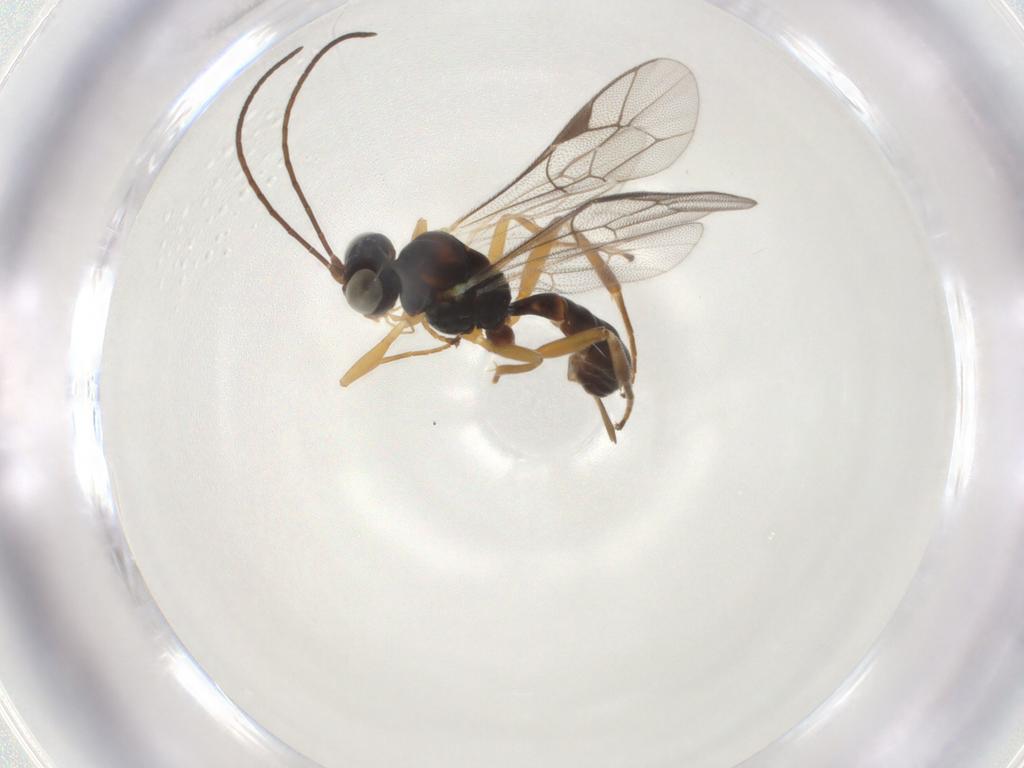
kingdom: Animalia
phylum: Arthropoda
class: Insecta
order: Hymenoptera
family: Ichneumonidae
